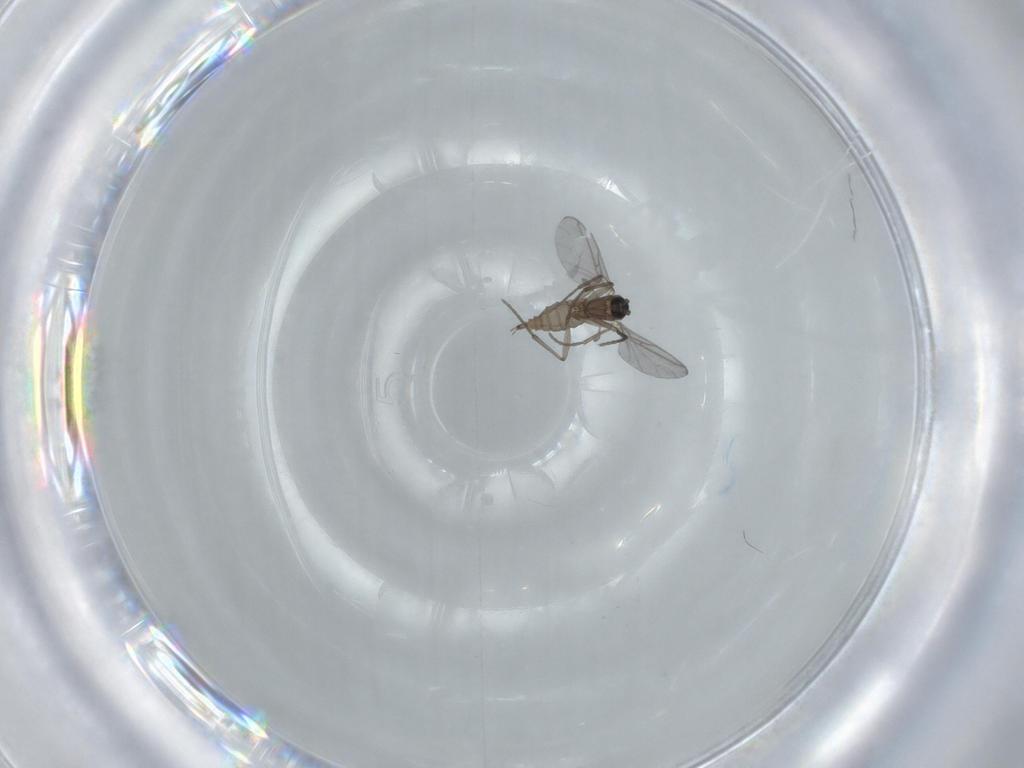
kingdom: Animalia
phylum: Arthropoda
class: Insecta
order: Diptera
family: Sciaridae
